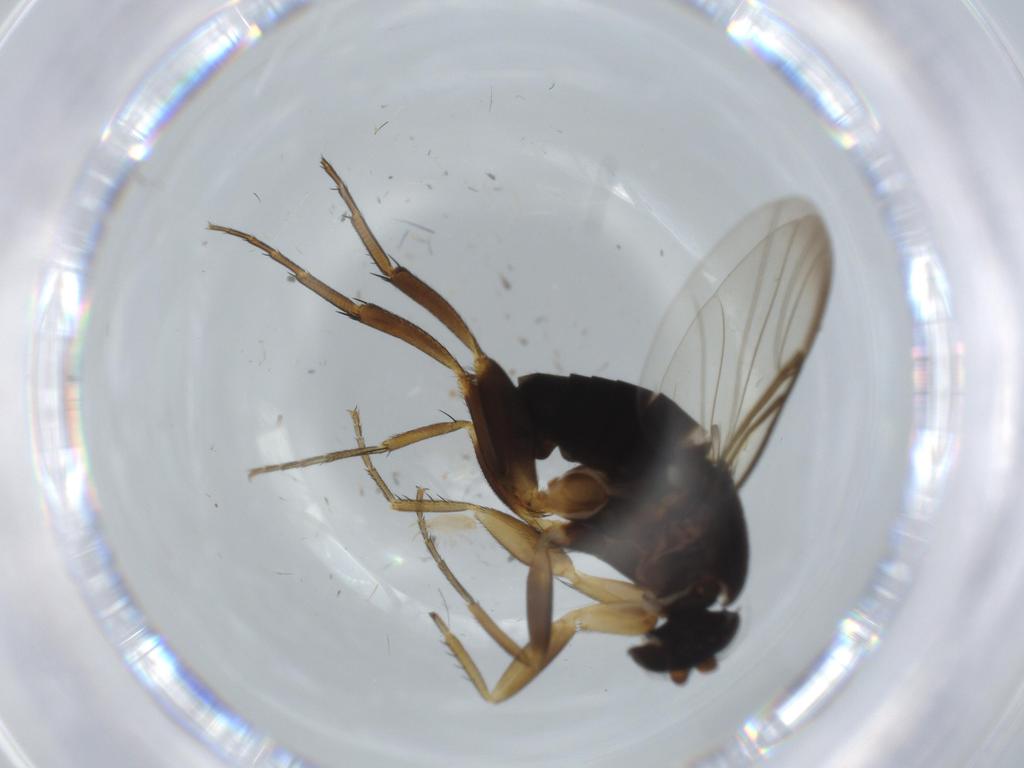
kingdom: Animalia
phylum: Arthropoda
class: Insecta
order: Diptera
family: Phoridae
